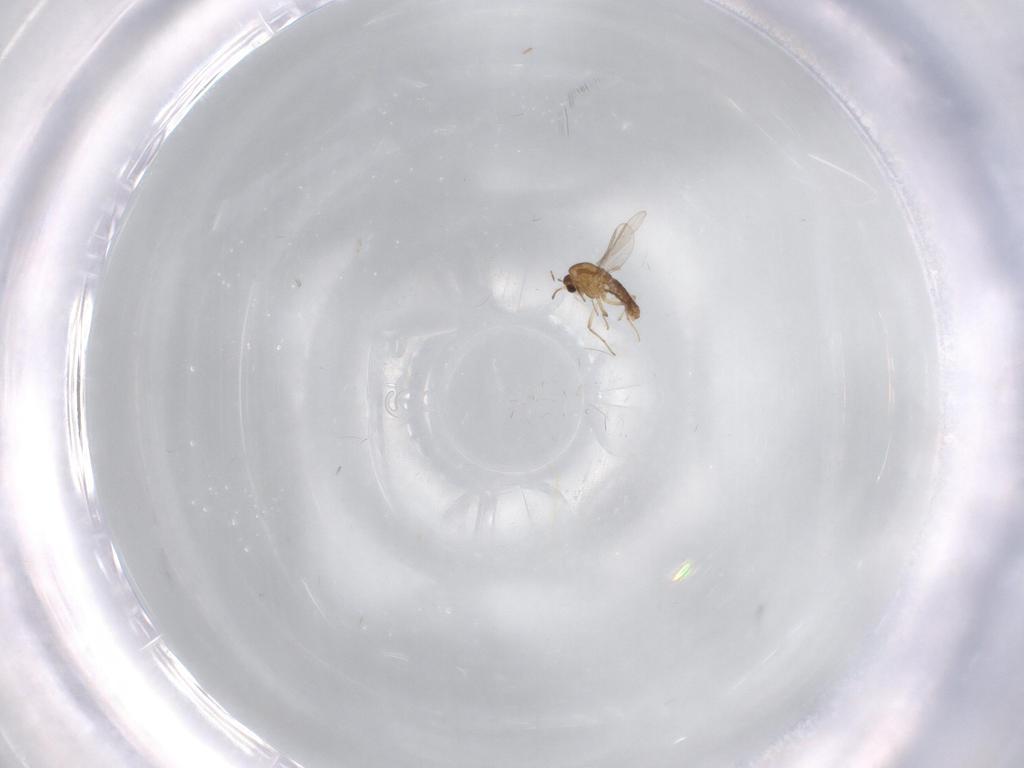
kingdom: Animalia
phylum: Arthropoda
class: Insecta
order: Diptera
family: Chironomidae
